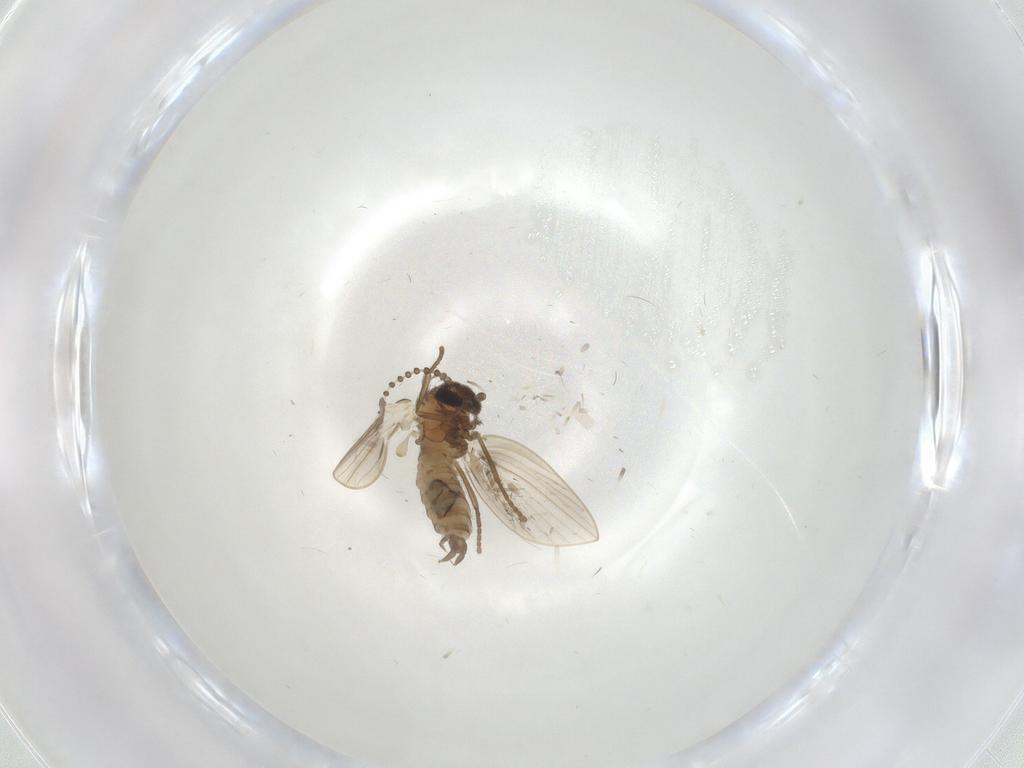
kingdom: Animalia
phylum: Arthropoda
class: Insecta
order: Diptera
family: Psychodidae
